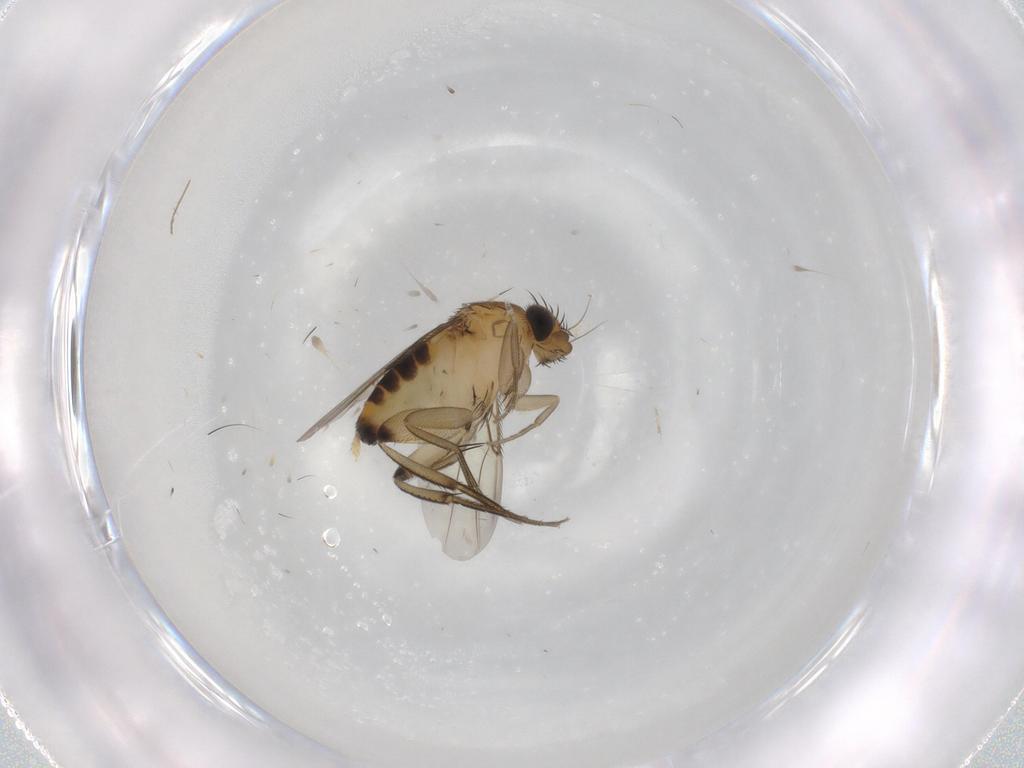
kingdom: Animalia
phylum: Arthropoda
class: Insecta
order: Diptera
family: Phoridae
